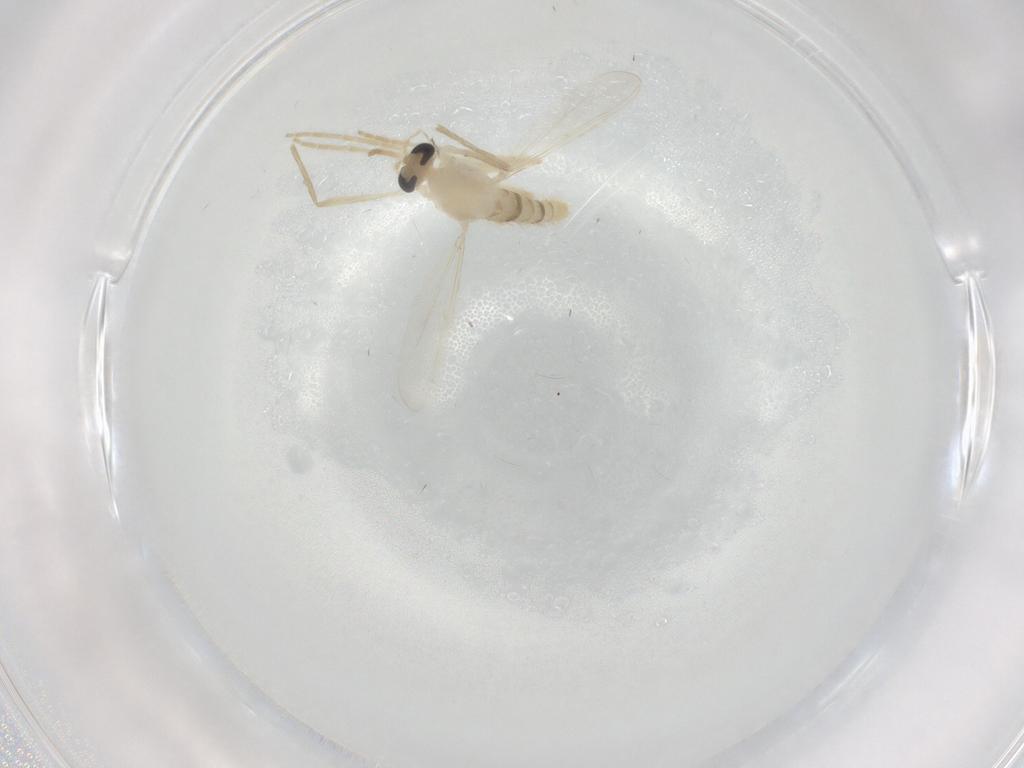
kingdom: Animalia
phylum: Arthropoda
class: Insecta
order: Diptera
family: Chironomidae
